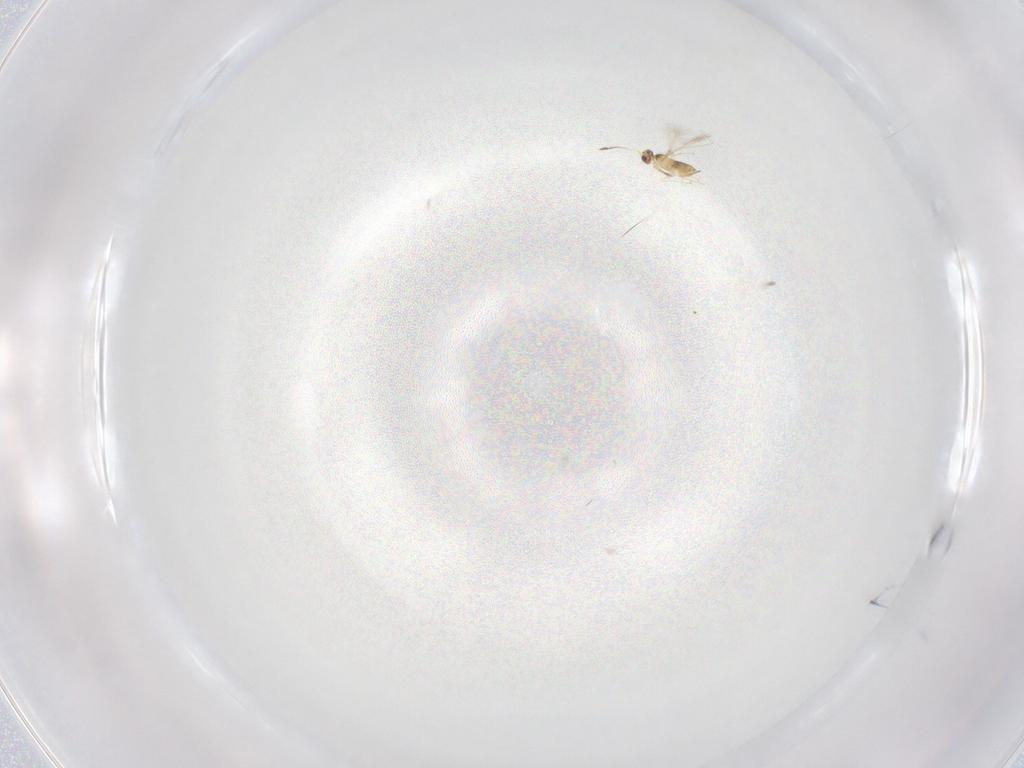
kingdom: Animalia
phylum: Arthropoda
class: Insecta
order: Hymenoptera
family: Mymaridae
